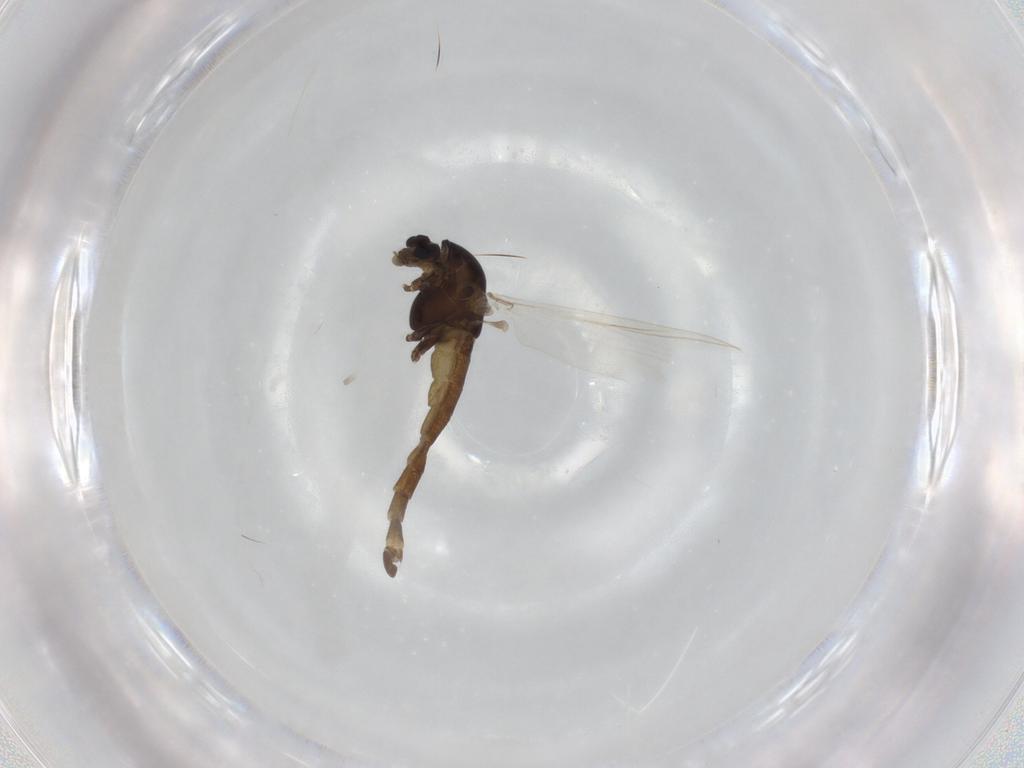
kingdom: Animalia
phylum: Arthropoda
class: Insecta
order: Diptera
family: Chironomidae
